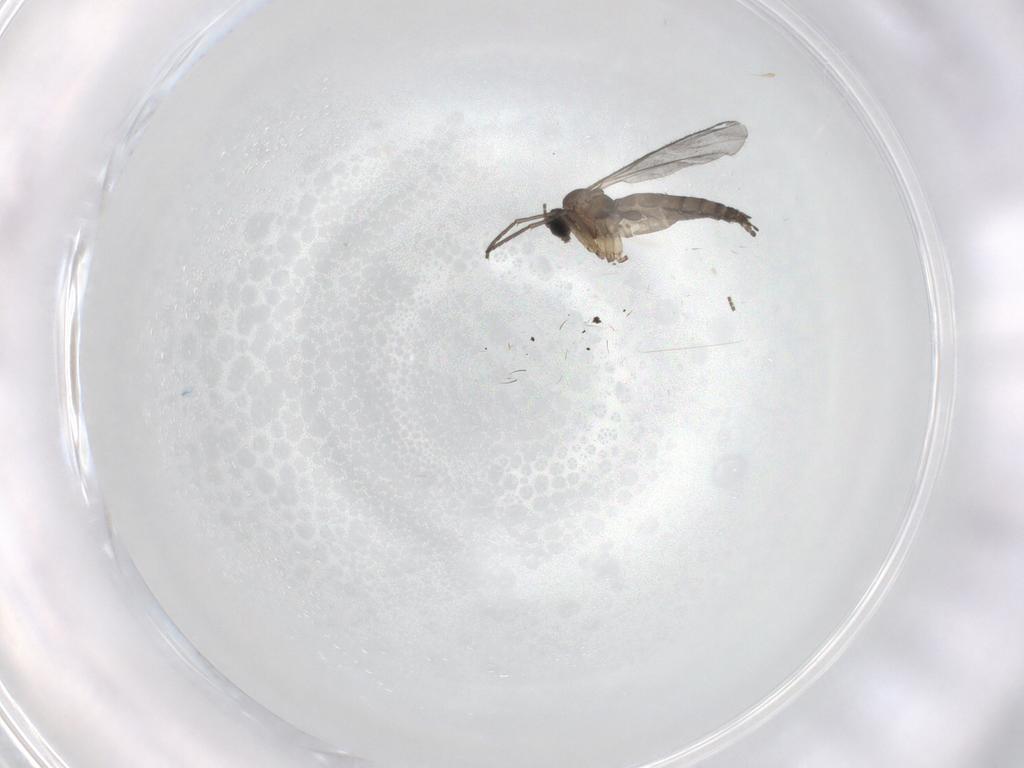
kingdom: Animalia
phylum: Arthropoda
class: Insecta
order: Diptera
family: Sciaridae
